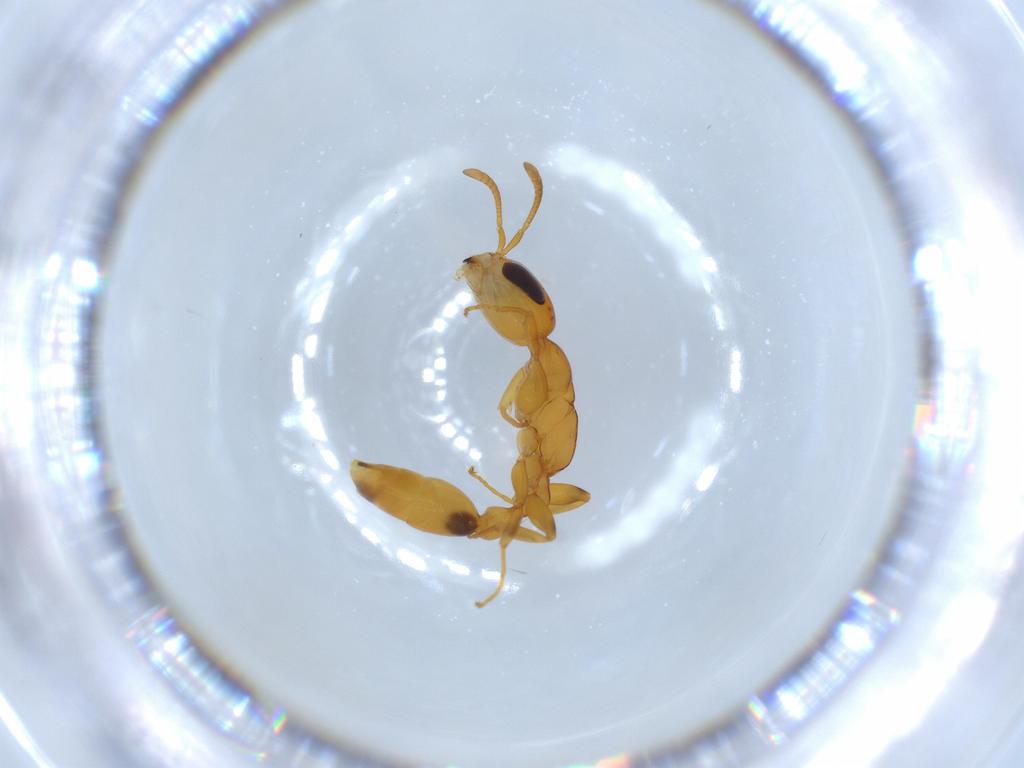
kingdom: Animalia
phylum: Arthropoda
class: Insecta
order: Hymenoptera
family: Formicidae
